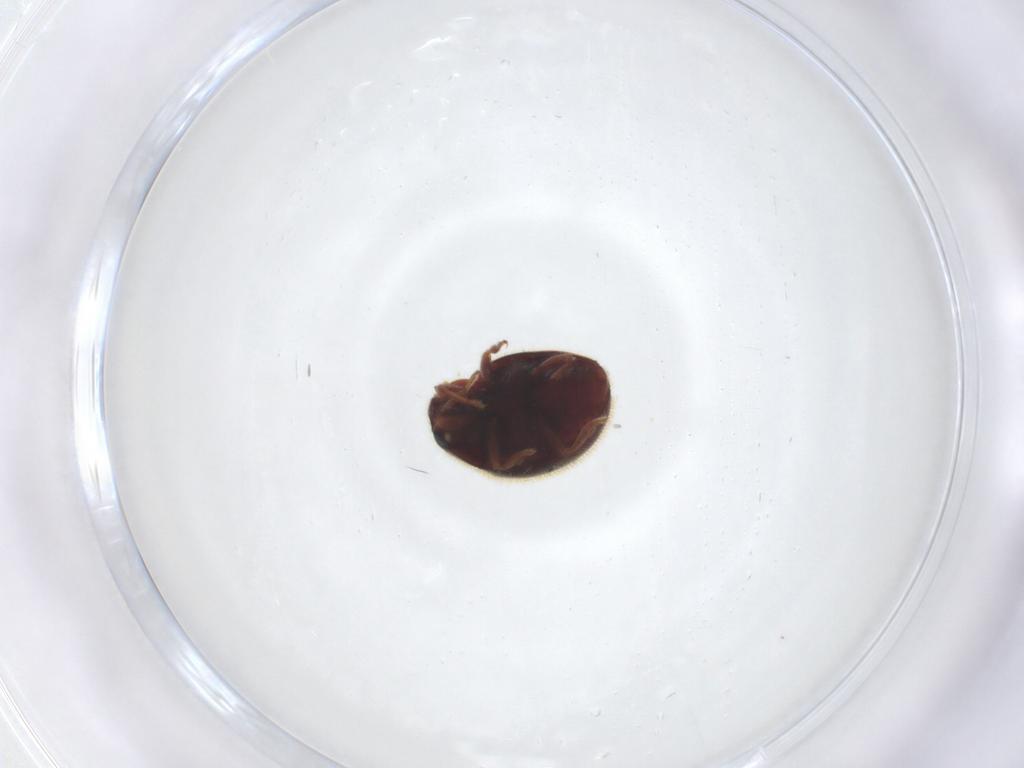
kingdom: Animalia
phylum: Arthropoda
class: Insecta
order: Coleoptera
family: Coccinellidae
